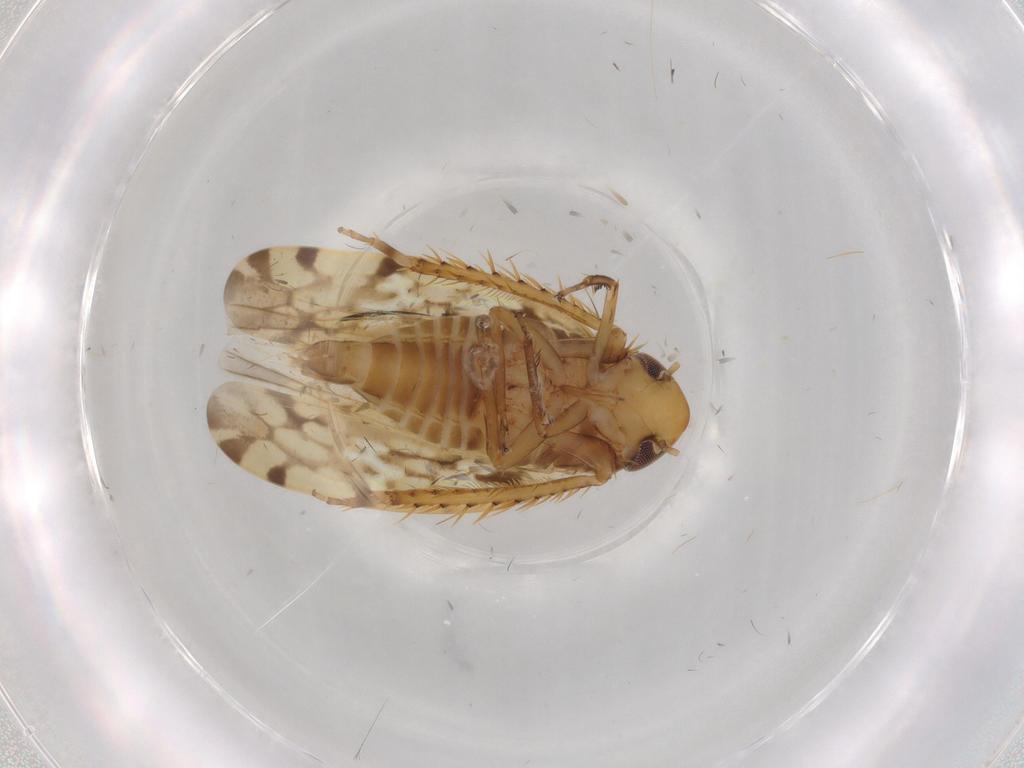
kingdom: Animalia
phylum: Arthropoda
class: Insecta
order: Hemiptera
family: Cicadellidae
